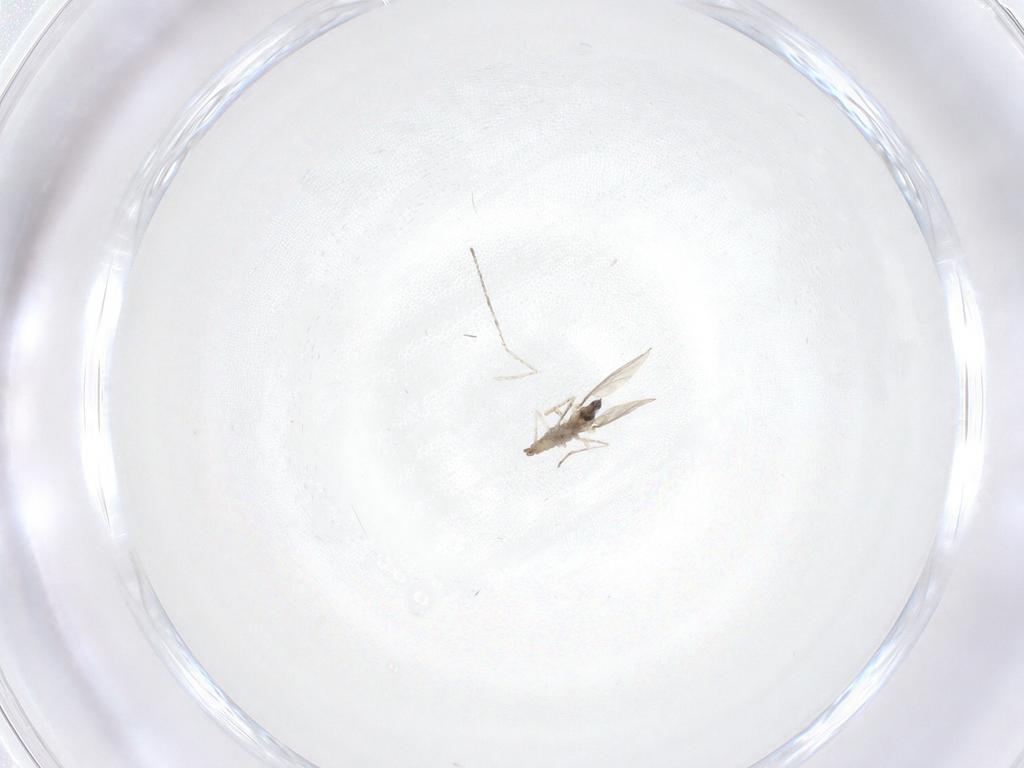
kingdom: Animalia
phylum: Arthropoda
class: Insecta
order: Diptera
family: Cecidomyiidae
